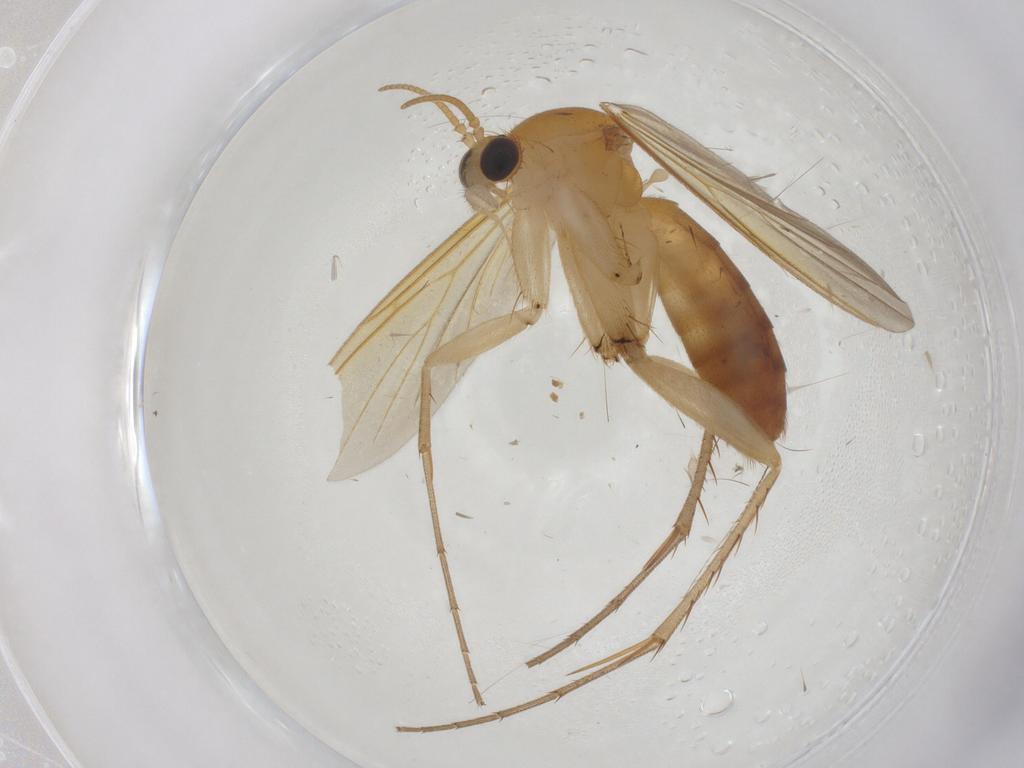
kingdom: Animalia
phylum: Arthropoda
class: Insecta
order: Diptera
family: Mycetophilidae
